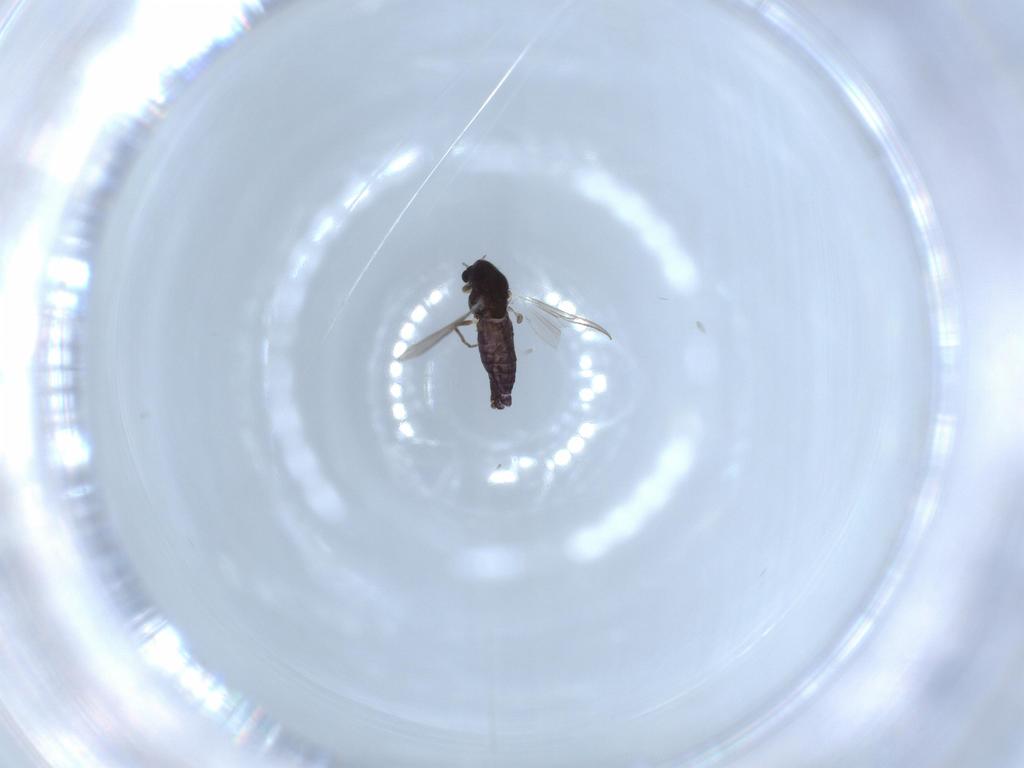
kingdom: Animalia
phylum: Arthropoda
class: Insecta
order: Diptera
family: Chironomidae
